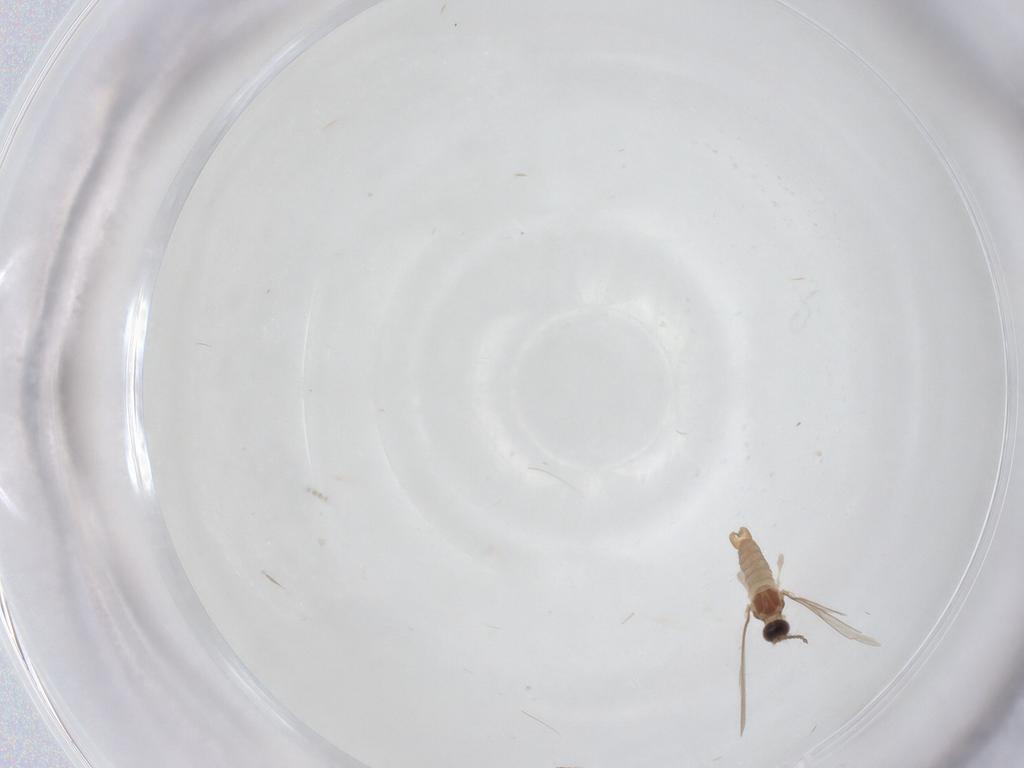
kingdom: Animalia
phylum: Arthropoda
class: Insecta
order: Diptera
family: Cecidomyiidae
